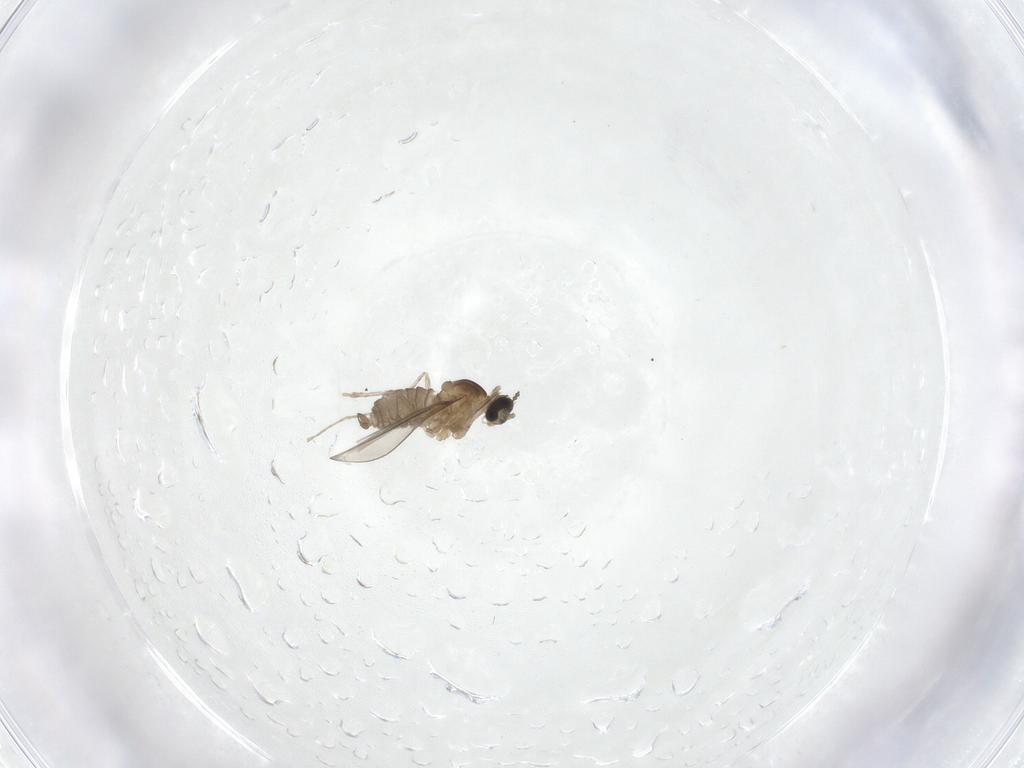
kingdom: Animalia
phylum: Arthropoda
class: Insecta
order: Diptera
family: Cecidomyiidae
